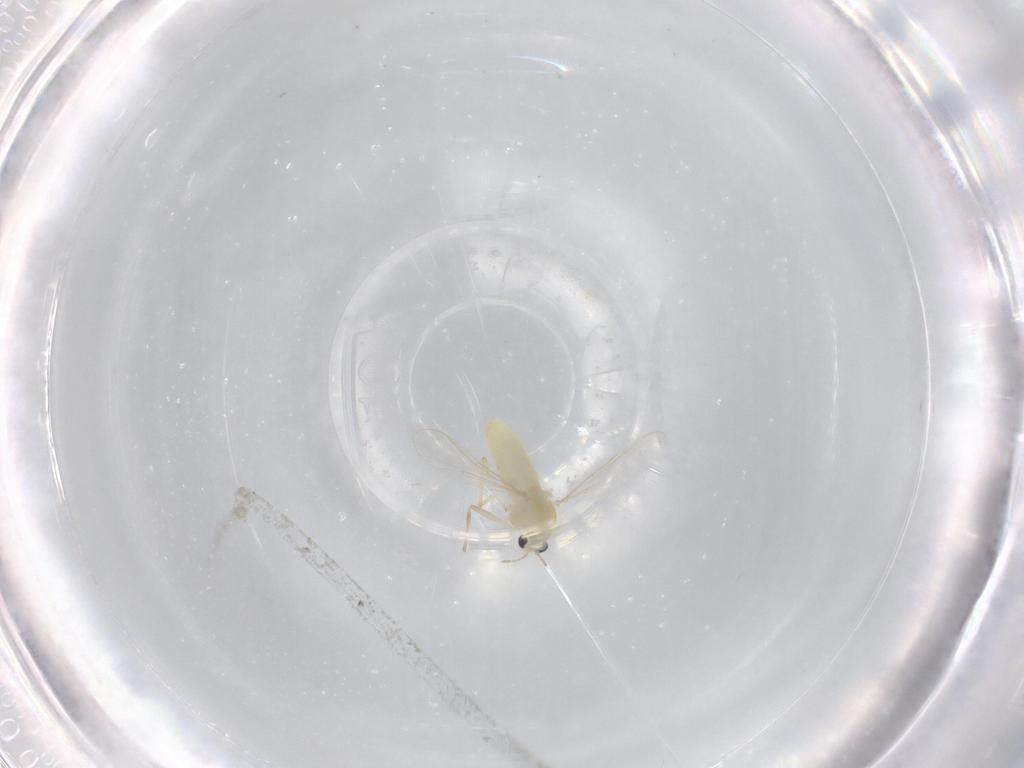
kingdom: Animalia
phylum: Arthropoda
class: Insecta
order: Diptera
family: Chironomidae
